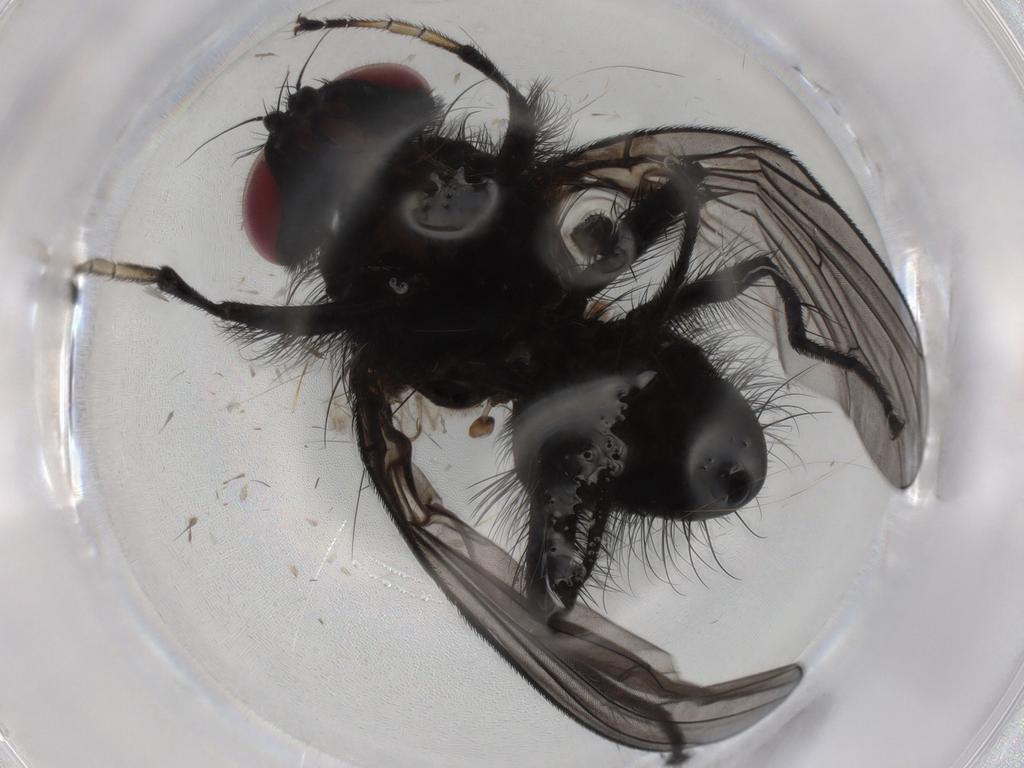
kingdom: Animalia
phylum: Arthropoda
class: Insecta
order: Diptera
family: Fannia
